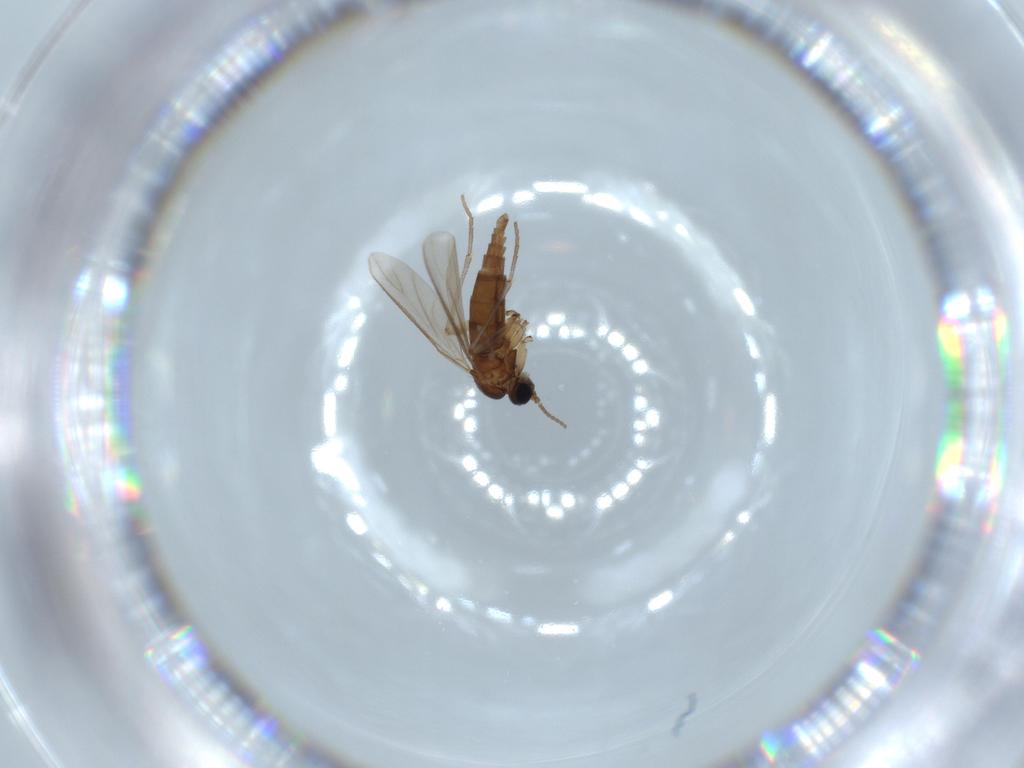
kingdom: Animalia
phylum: Arthropoda
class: Insecta
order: Diptera
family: Sciaridae
